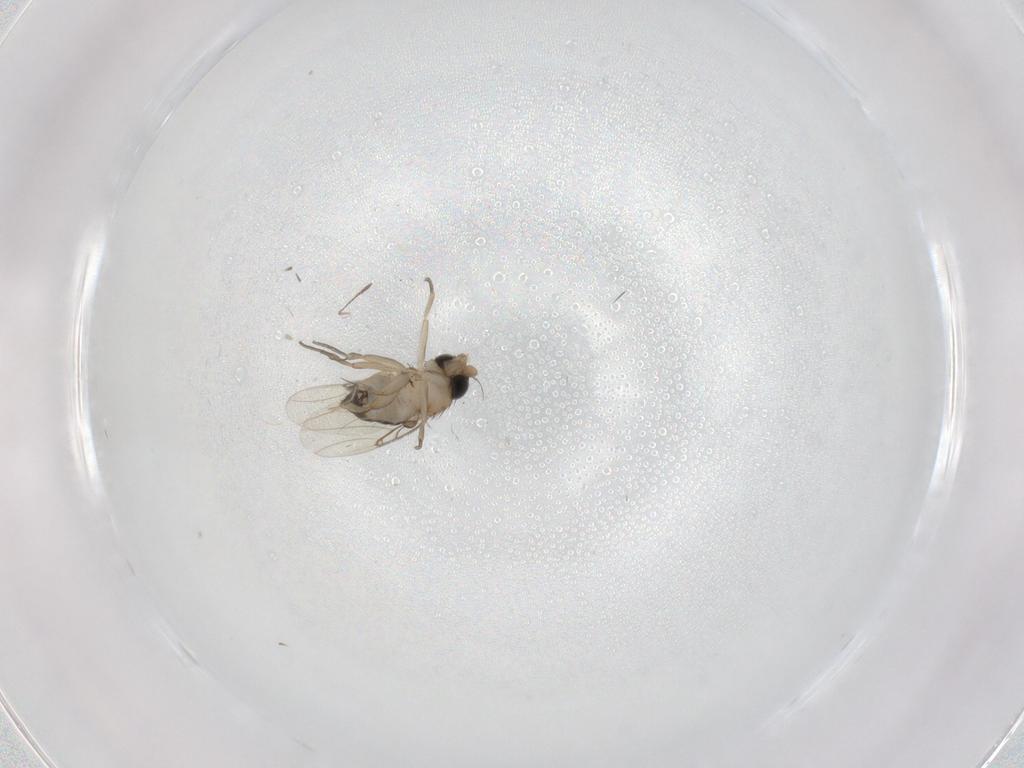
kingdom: Animalia
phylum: Arthropoda
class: Insecta
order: Diptera
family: Phoridae
